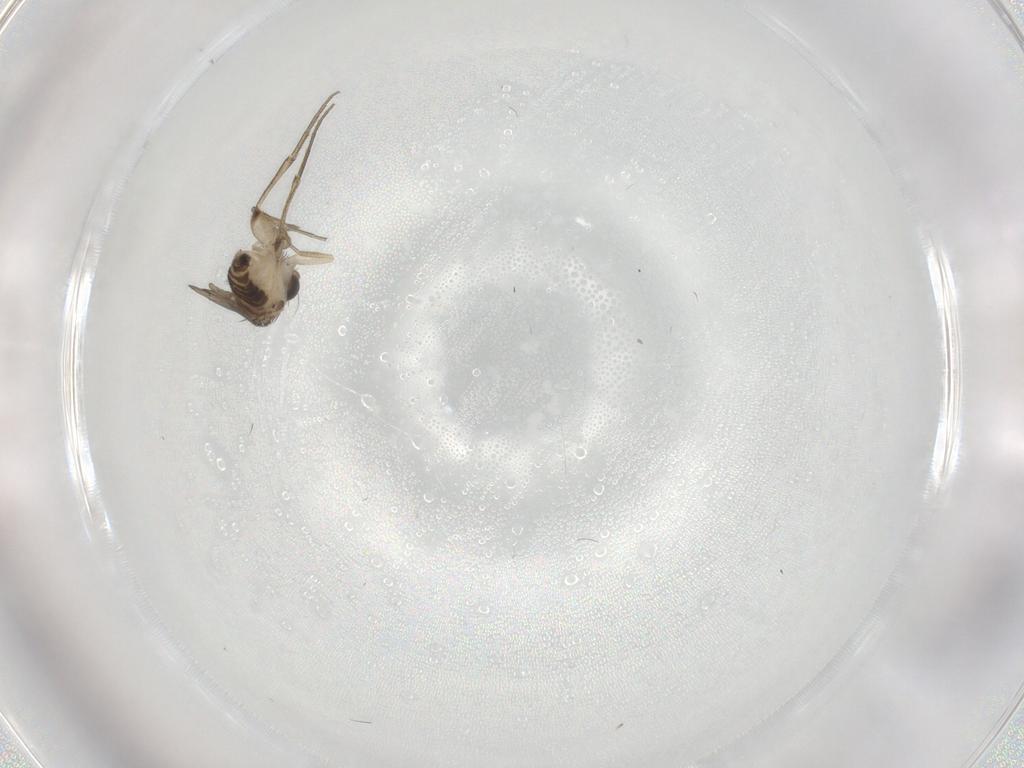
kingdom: Animalia
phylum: Arthropoda
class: Insecta
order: Diptera
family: Phoridae
